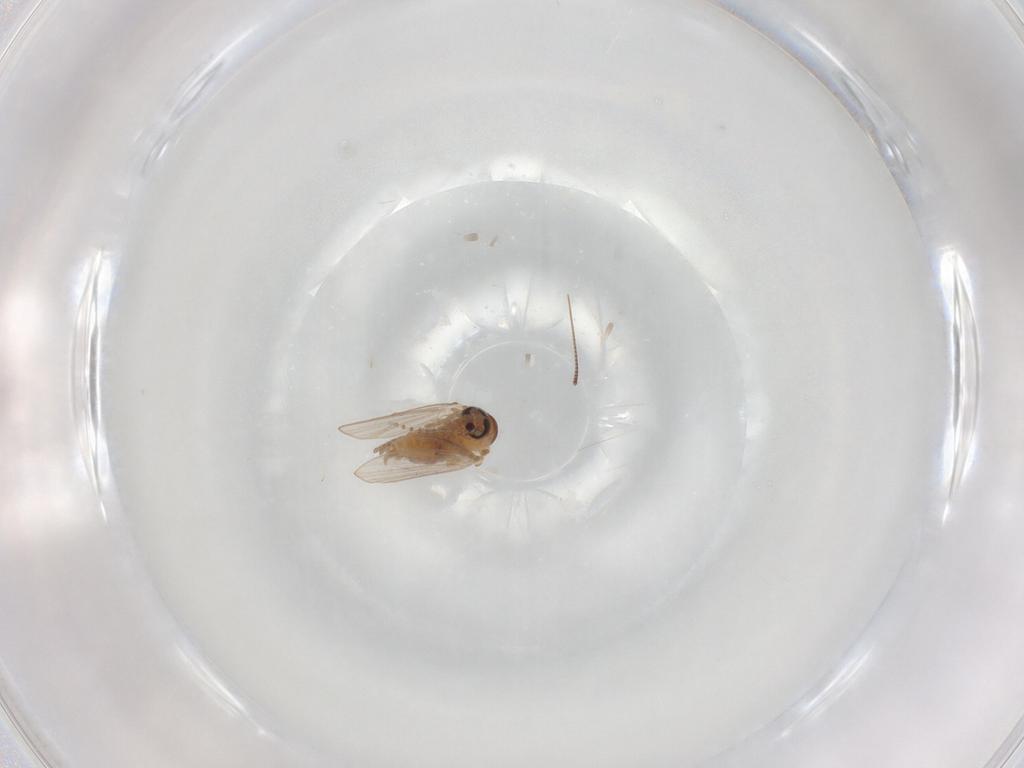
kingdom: Animalia
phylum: Arthropoda
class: Insecta
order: Diptera
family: Psychodidae
